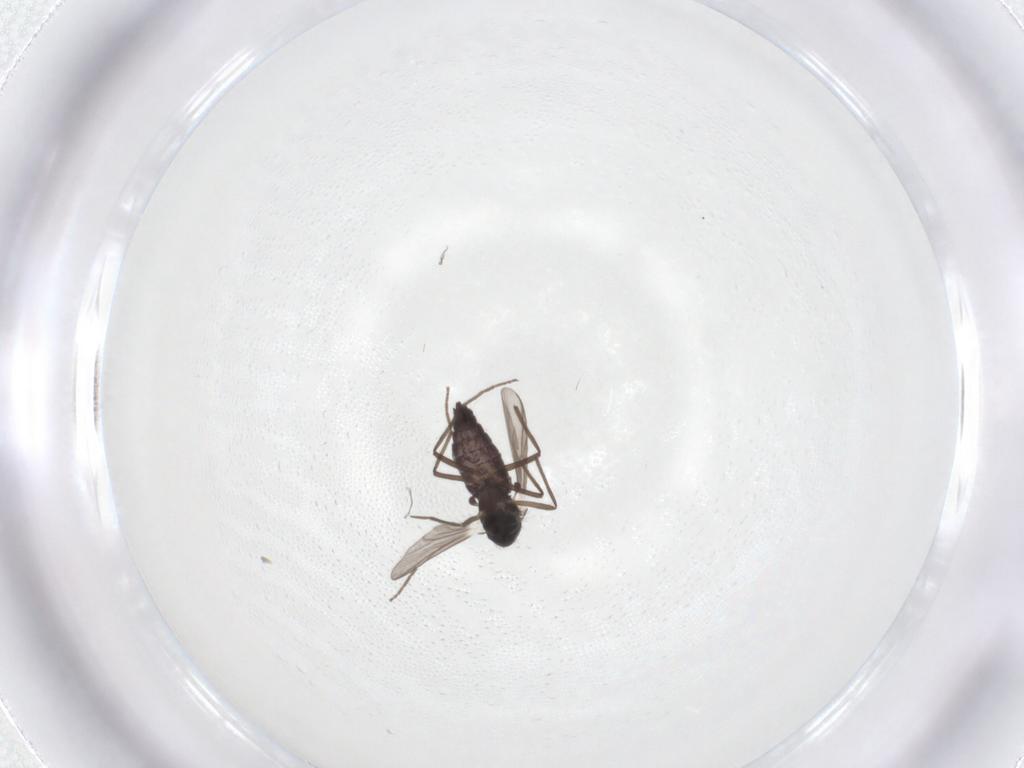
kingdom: Animalia
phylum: Arthropoda
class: Insecta
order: Diptera
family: Chironomidae
